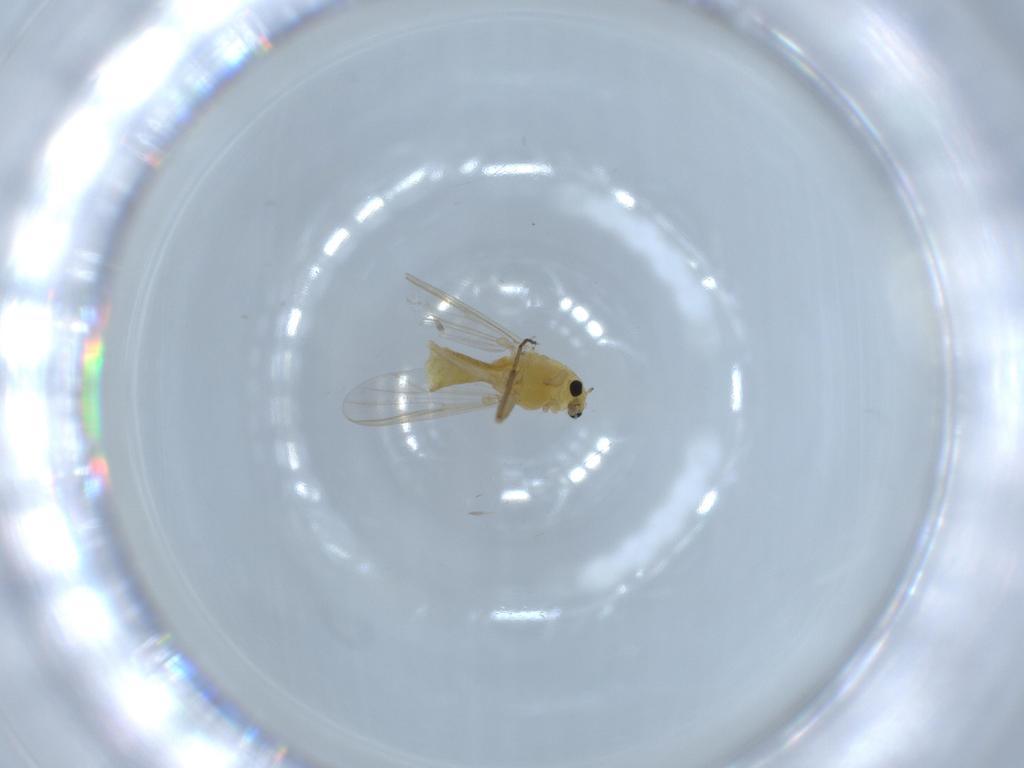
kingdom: Animalia
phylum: Arthropoda
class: Insecta
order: Diptera
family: Chironomidae
